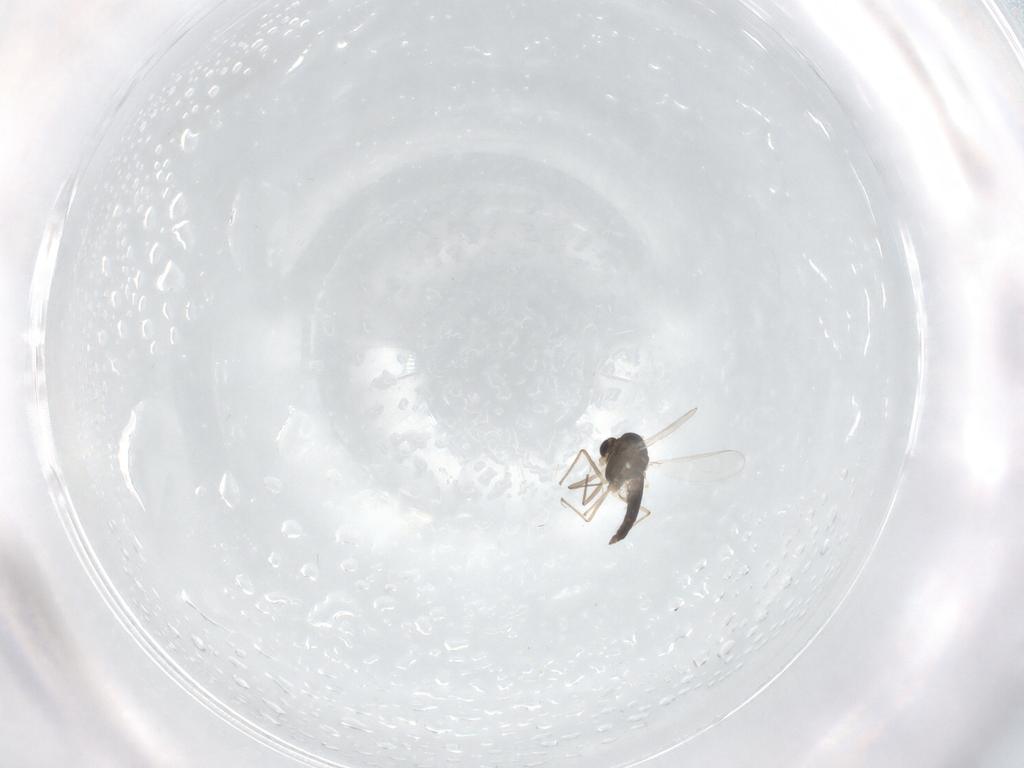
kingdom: Animalia
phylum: Arthropoda
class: Insecta
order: Diptera
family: Chironomidae
